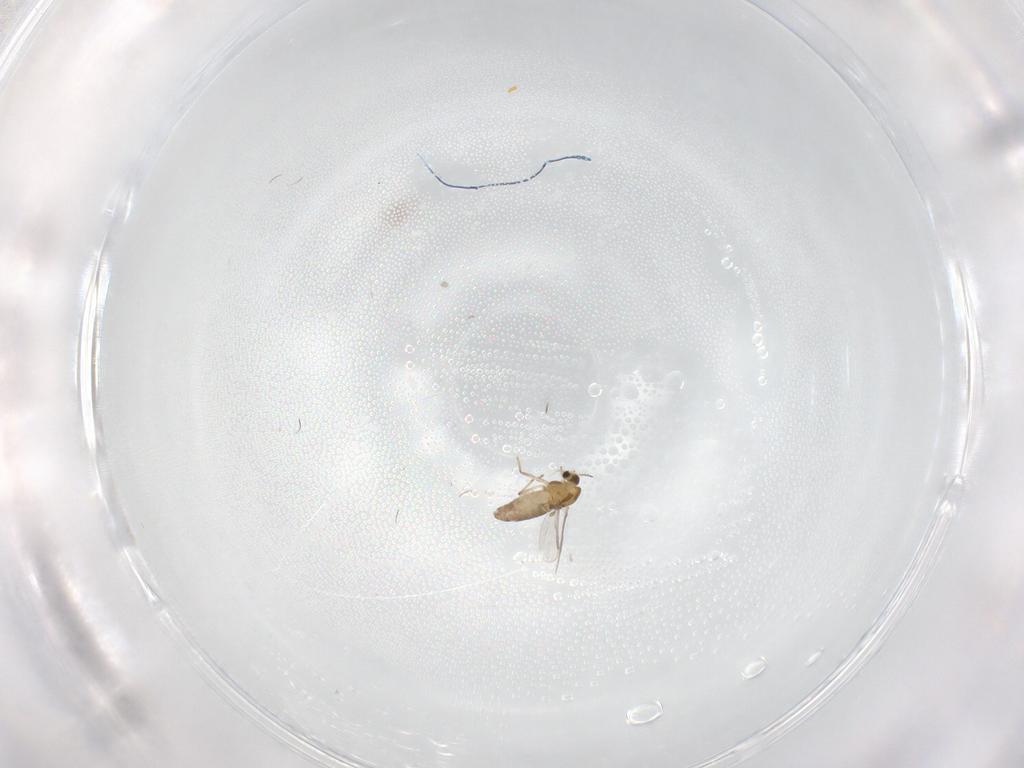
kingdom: Animalia
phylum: Arthropoda
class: Insecta
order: Diptera
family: Chironomidae
